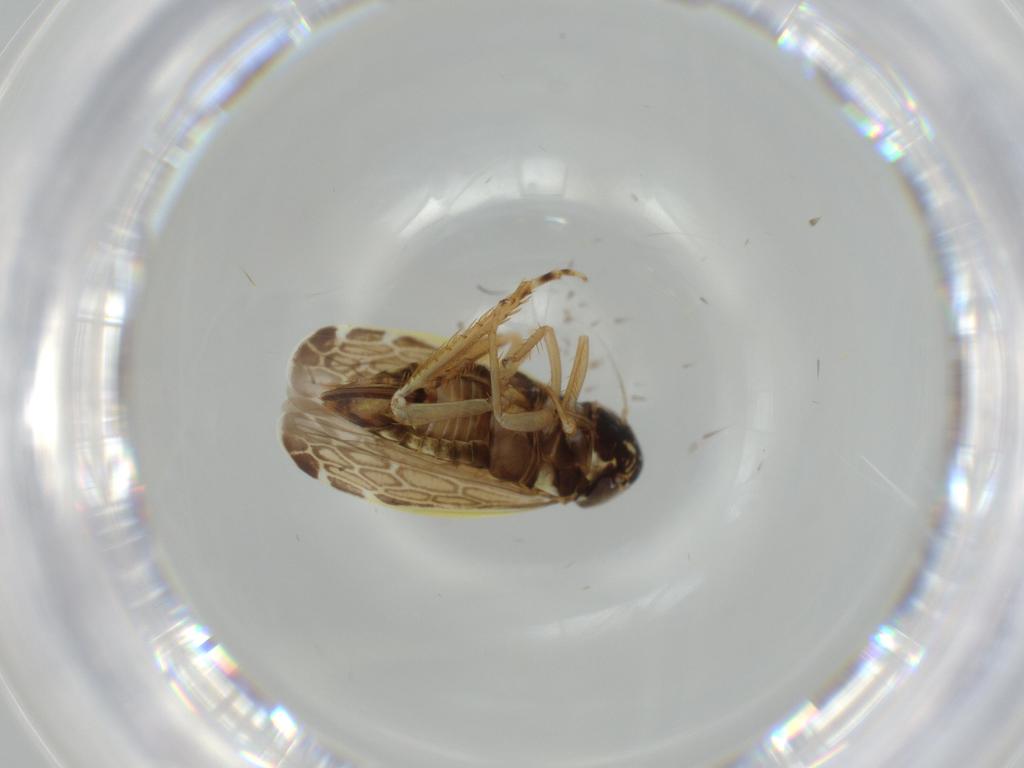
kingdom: Animalia
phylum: Arthropoda
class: Insecta
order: Hemiptera
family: Cicadellidae
